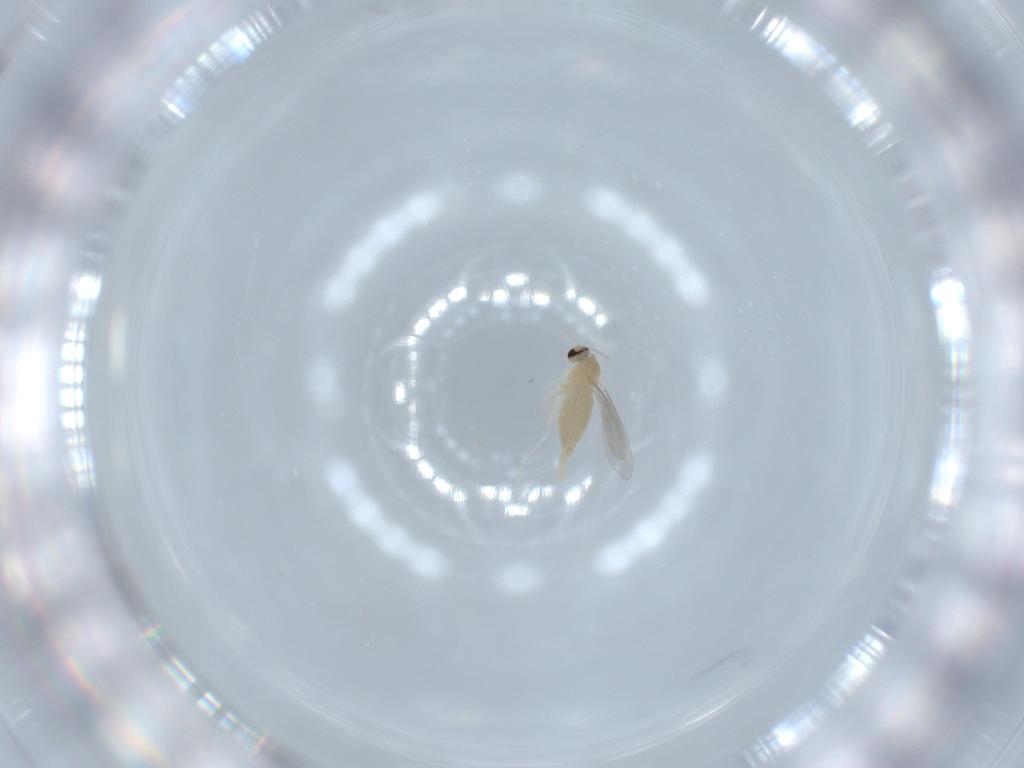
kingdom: Animalia
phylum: Arthropoda
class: Insecta
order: Diptera
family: Cecidomyiidae
